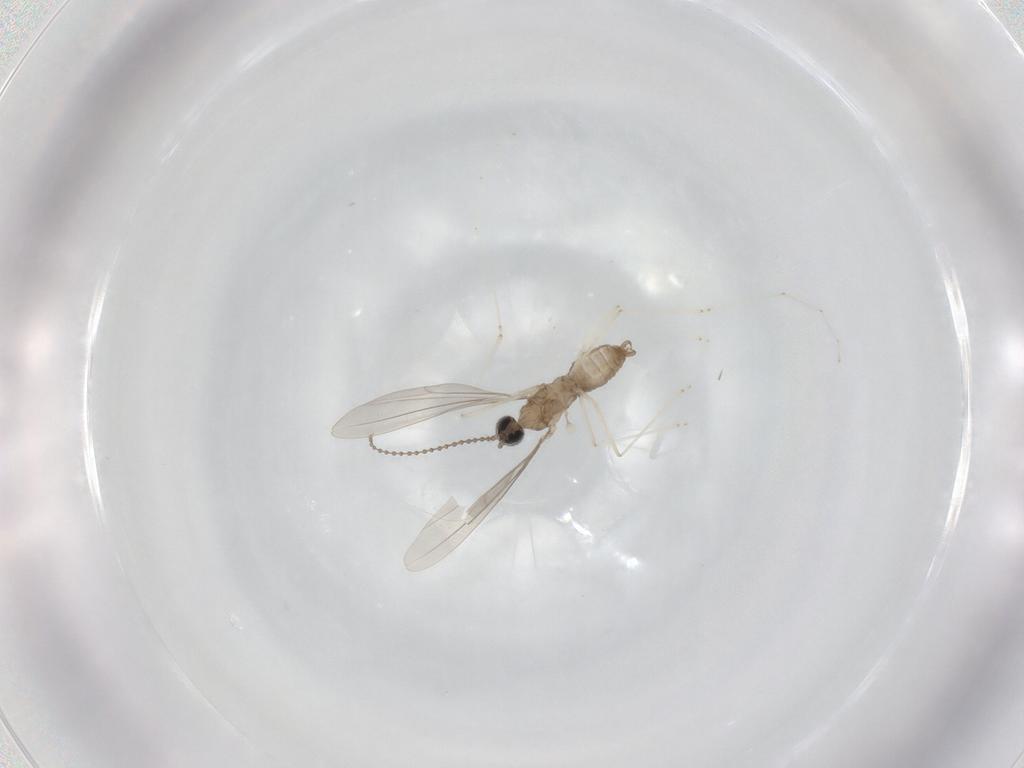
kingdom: Animalia
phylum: Arthropoda
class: Insecta
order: Diptera
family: Cecidomyiidae
